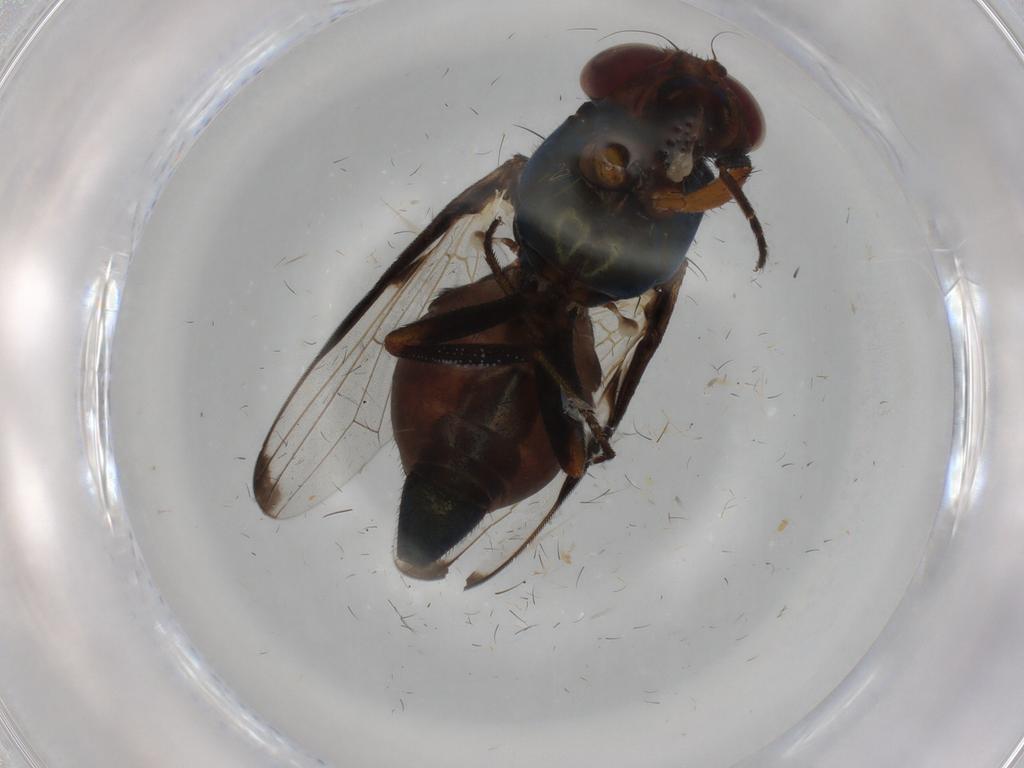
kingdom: Animalia
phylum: Arthropoda
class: Insecta
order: Diptera
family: Ulidiidae
